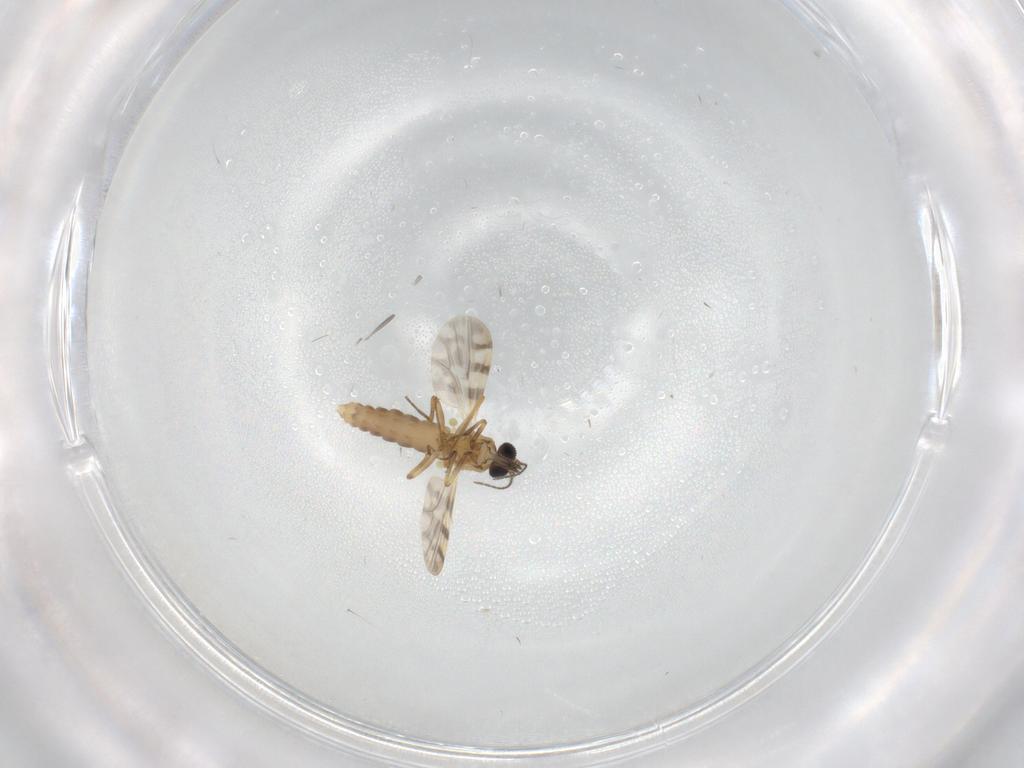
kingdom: Animalia
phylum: Arthropoda
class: Insecta
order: Diptera
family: Ceratopogonidae
